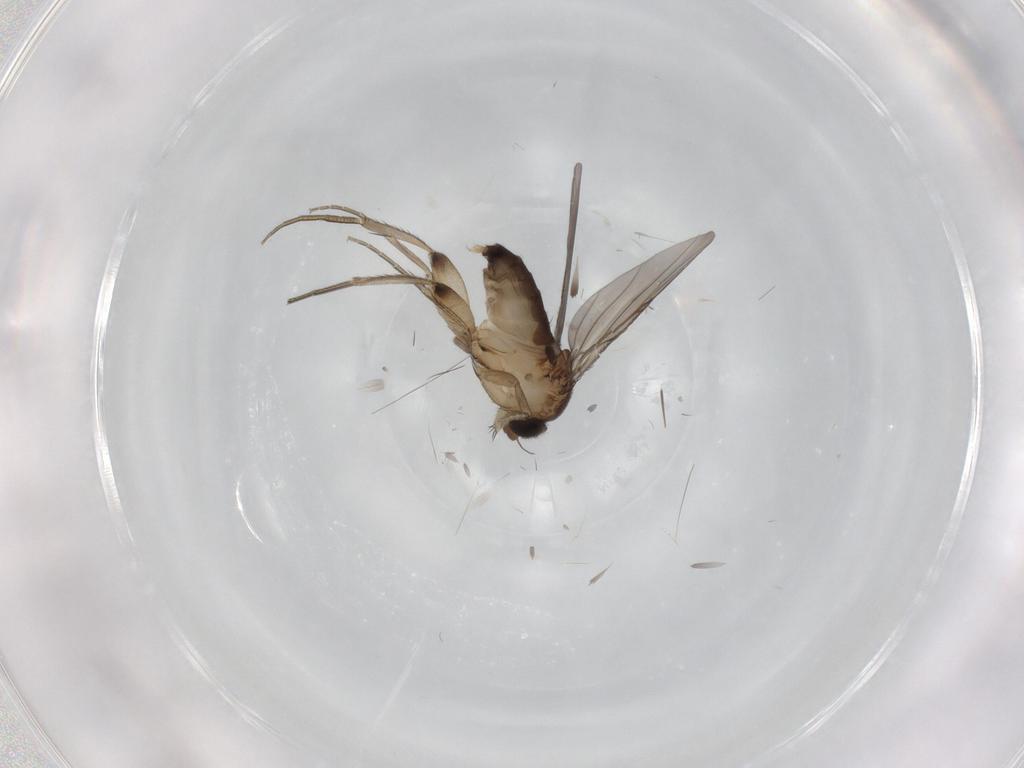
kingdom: Animalia
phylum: Arthropoda
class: Insecta
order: Diptera
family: Phoridae
